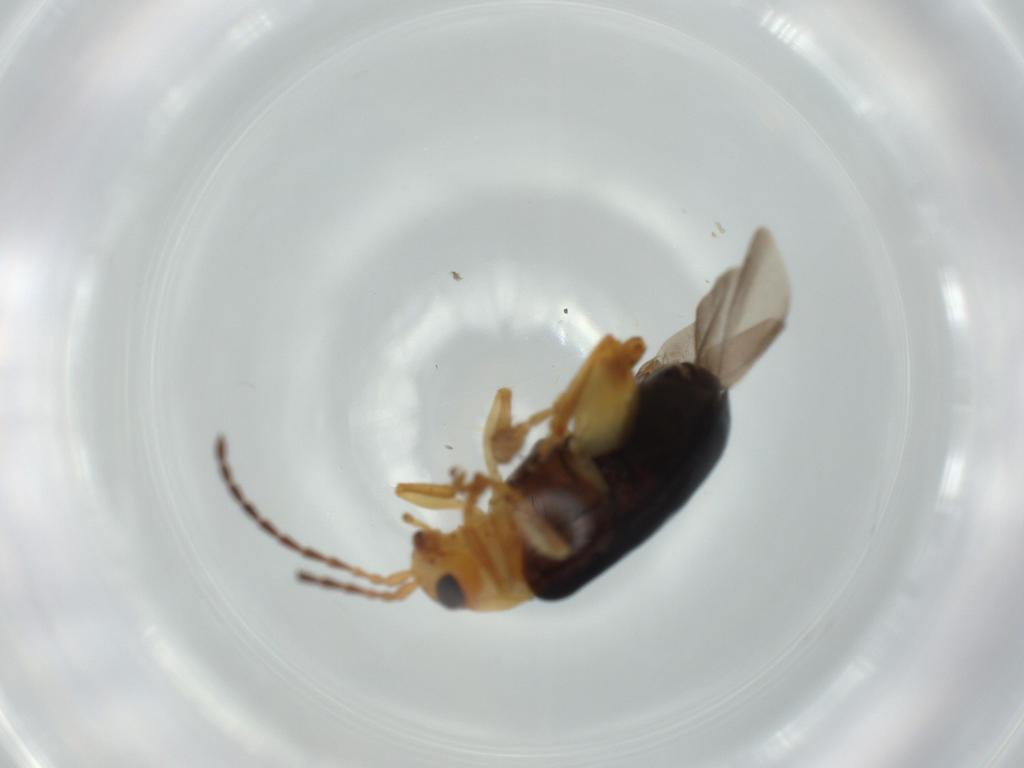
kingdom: Animalia
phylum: Arthropoda
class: Insecta
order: Coleoptera
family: Chrysomelidae
